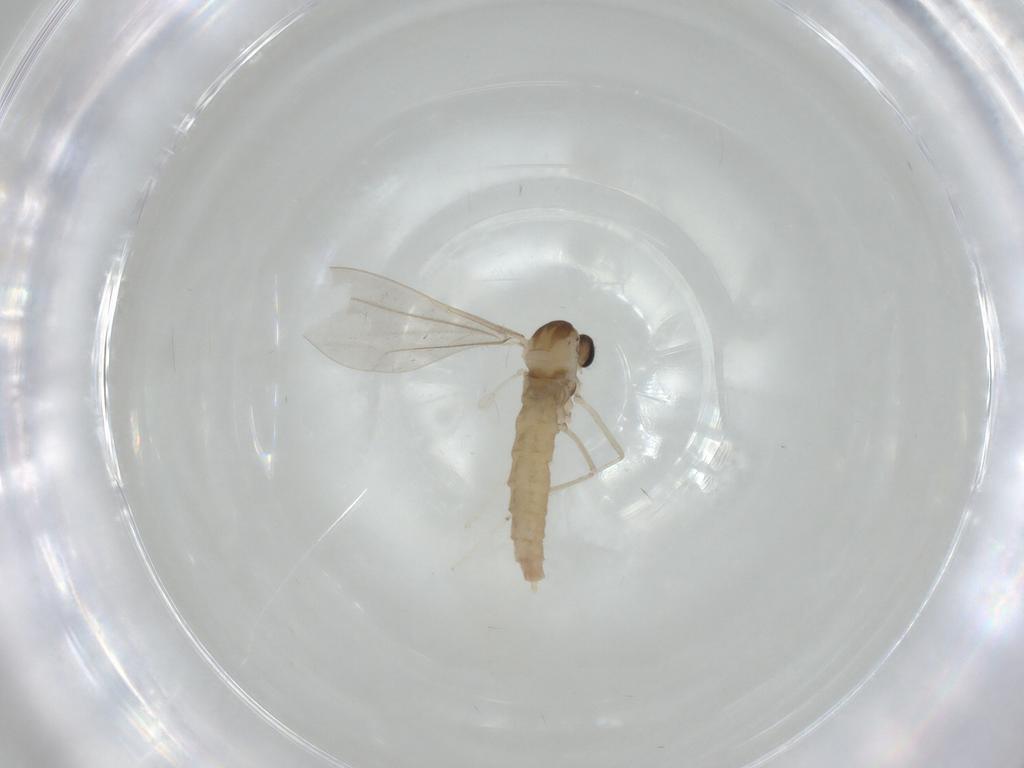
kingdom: Animalia
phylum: Arthropoda
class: Insecta
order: Diptera
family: Cecidomyiidae
